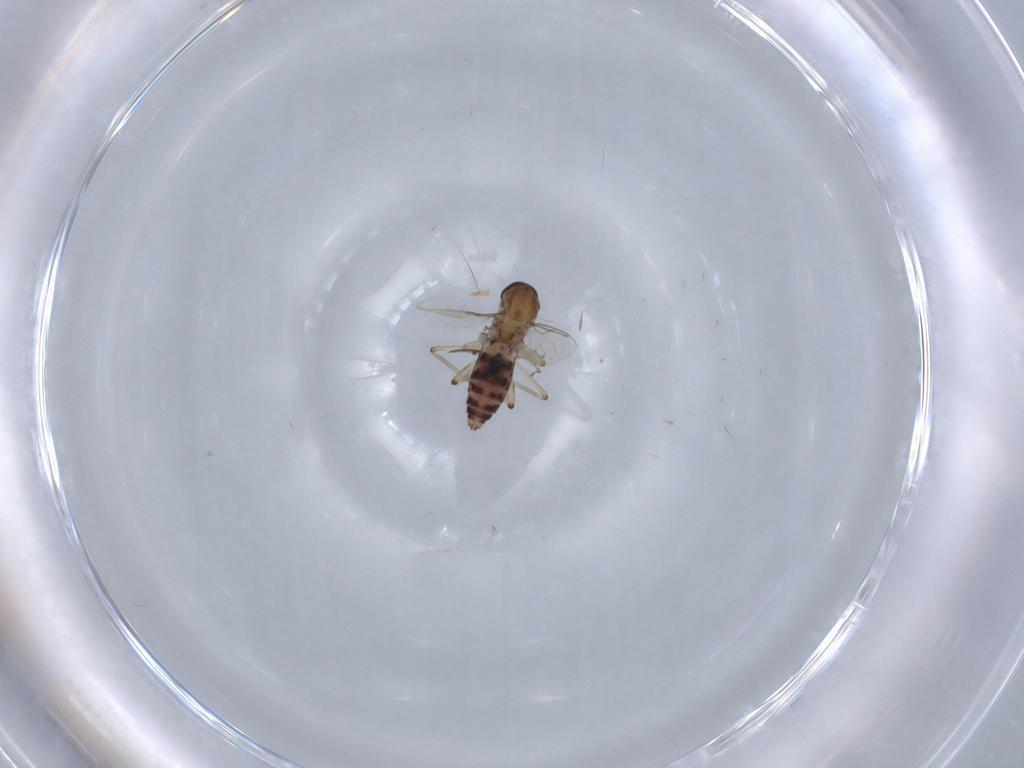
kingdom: Animalia
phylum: Arthropoda
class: Insecta
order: Diptera
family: Ceratopogonidae
